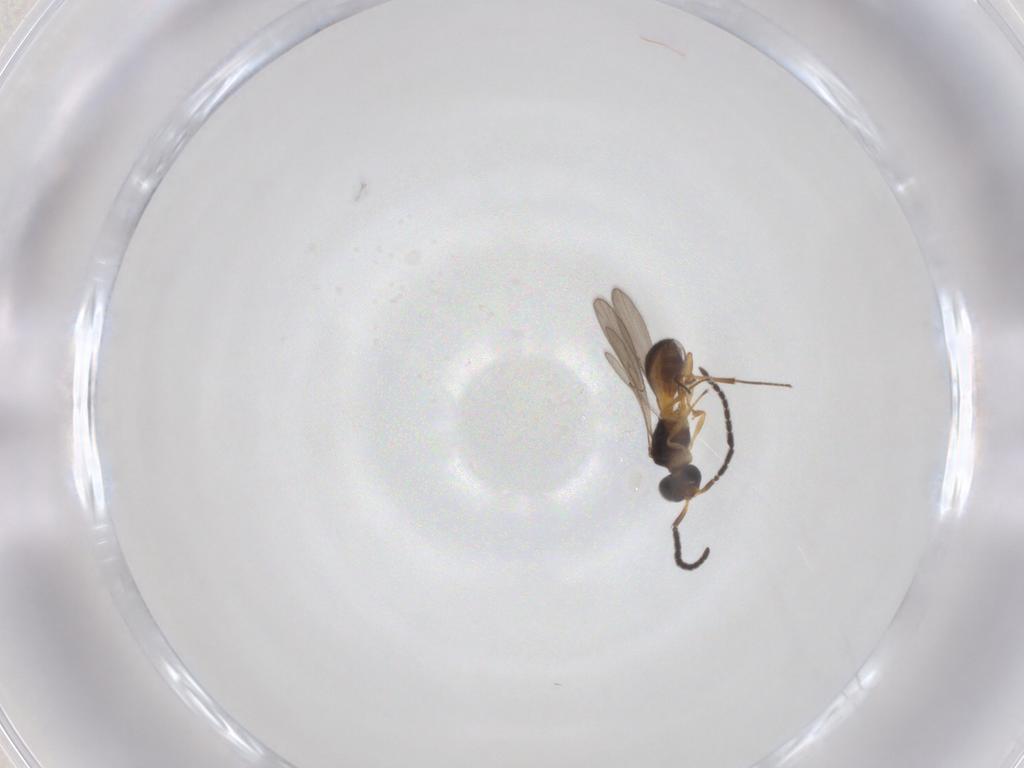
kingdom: Animalia
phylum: Arthropoda
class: Insecta
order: Hymenoptera
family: Scelionidae
